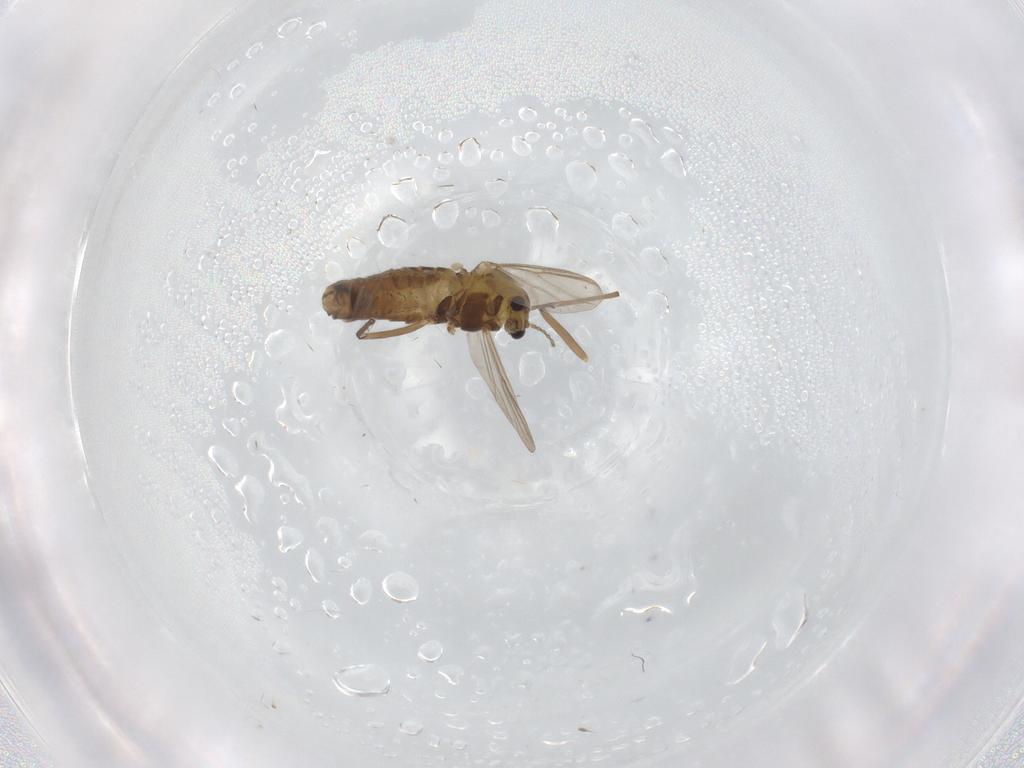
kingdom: Animalia
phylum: Arthropoda
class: Insecta
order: Diptera
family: Chironomidae
